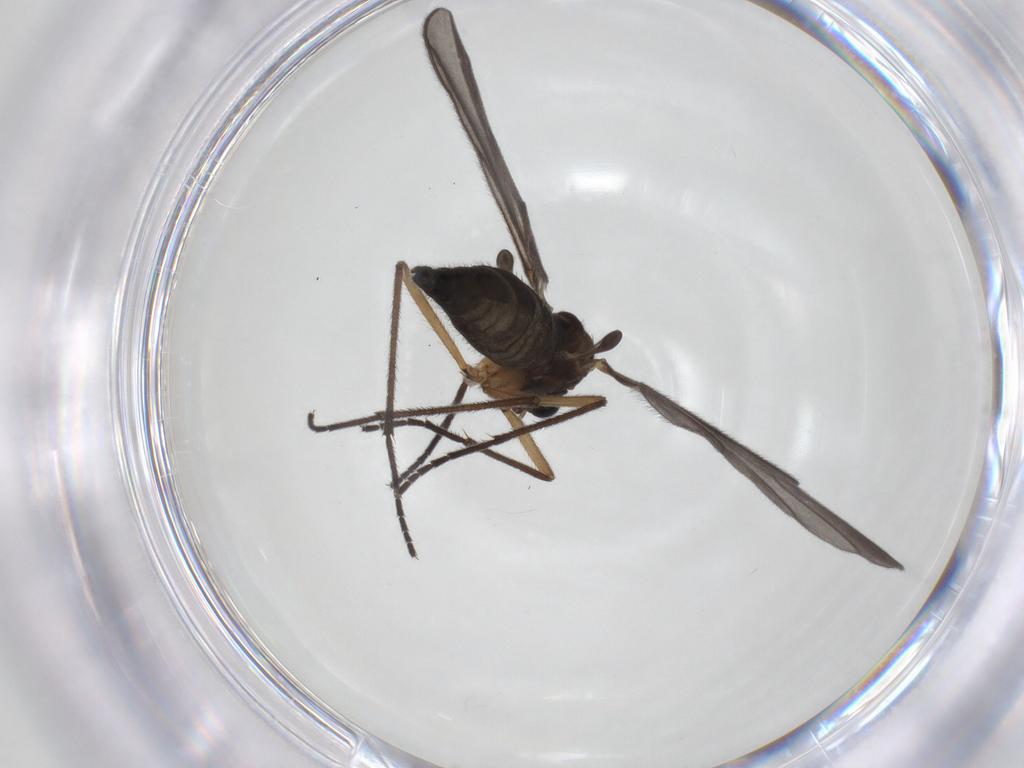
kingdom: Animalia
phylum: Arthropoda
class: Insecta
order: Diptera
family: Sciaridae
